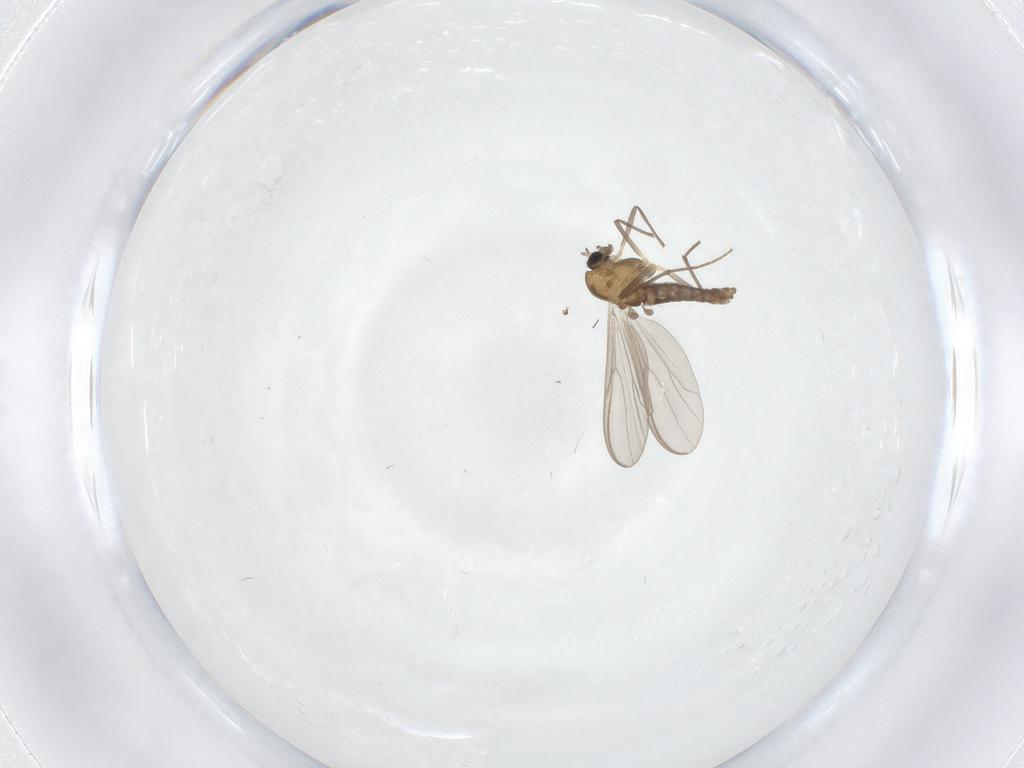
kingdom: Animalia
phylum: Arthropoda
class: Insecta
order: Diptera
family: Chironomidae
